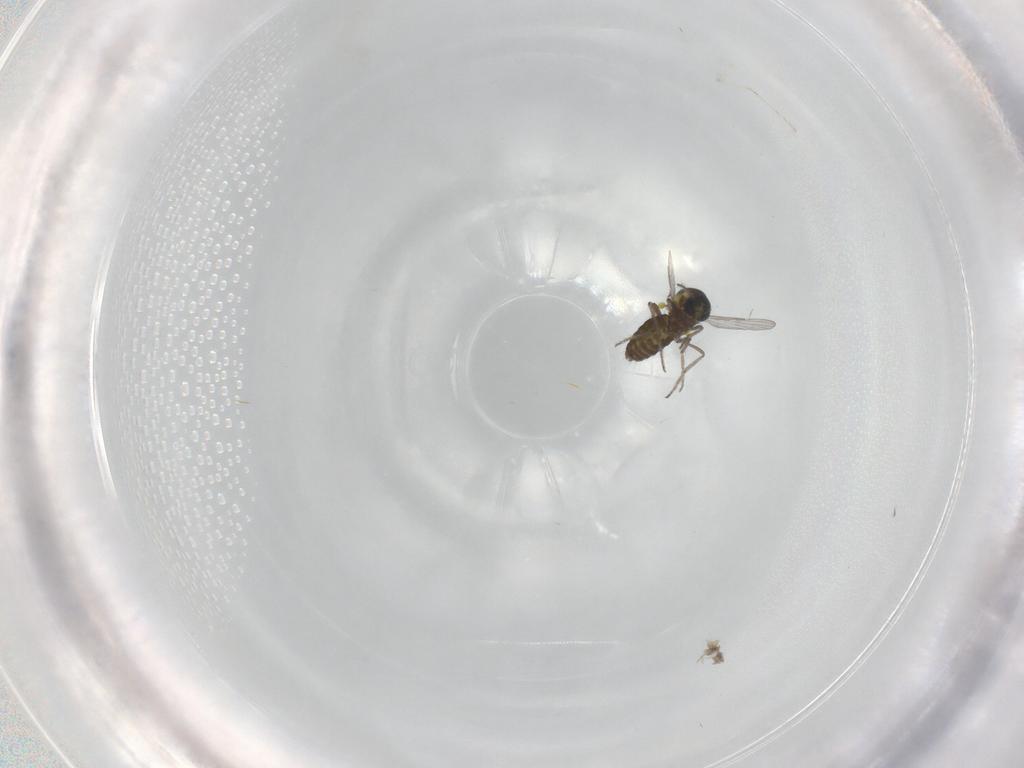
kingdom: Animalia
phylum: Arthropoda
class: Insecta
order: Diptera
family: Ceratopogonidae
